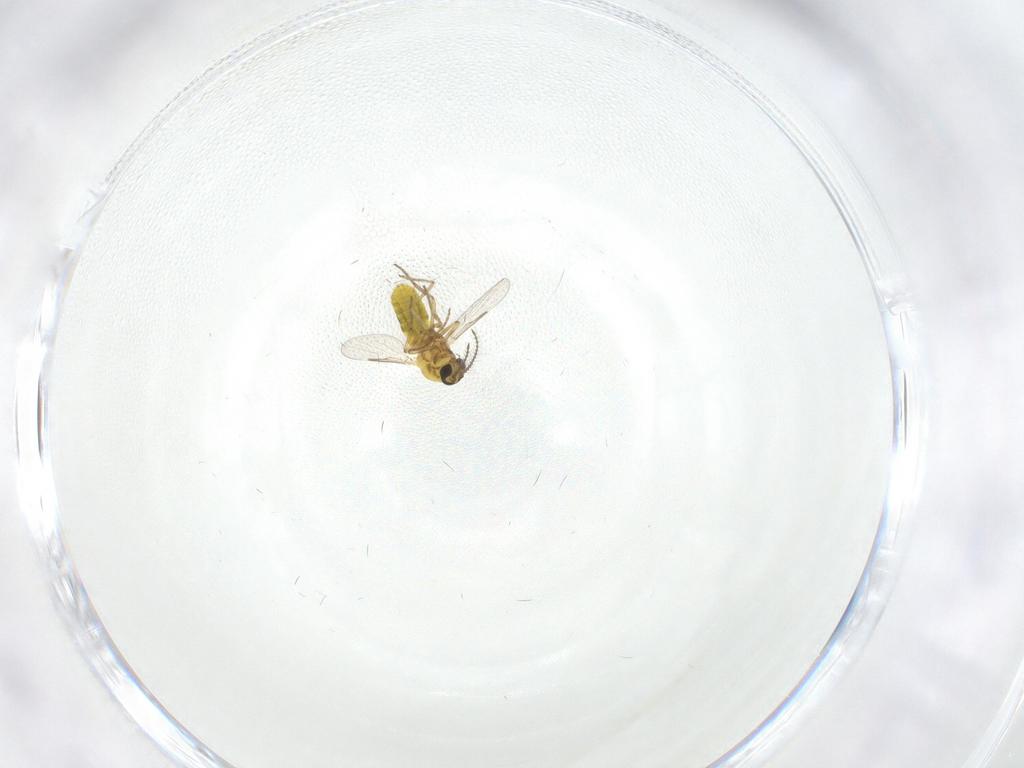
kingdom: Animalia
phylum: Arthropoda
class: Insecta
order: Diptera
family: Ceratopogonidae
